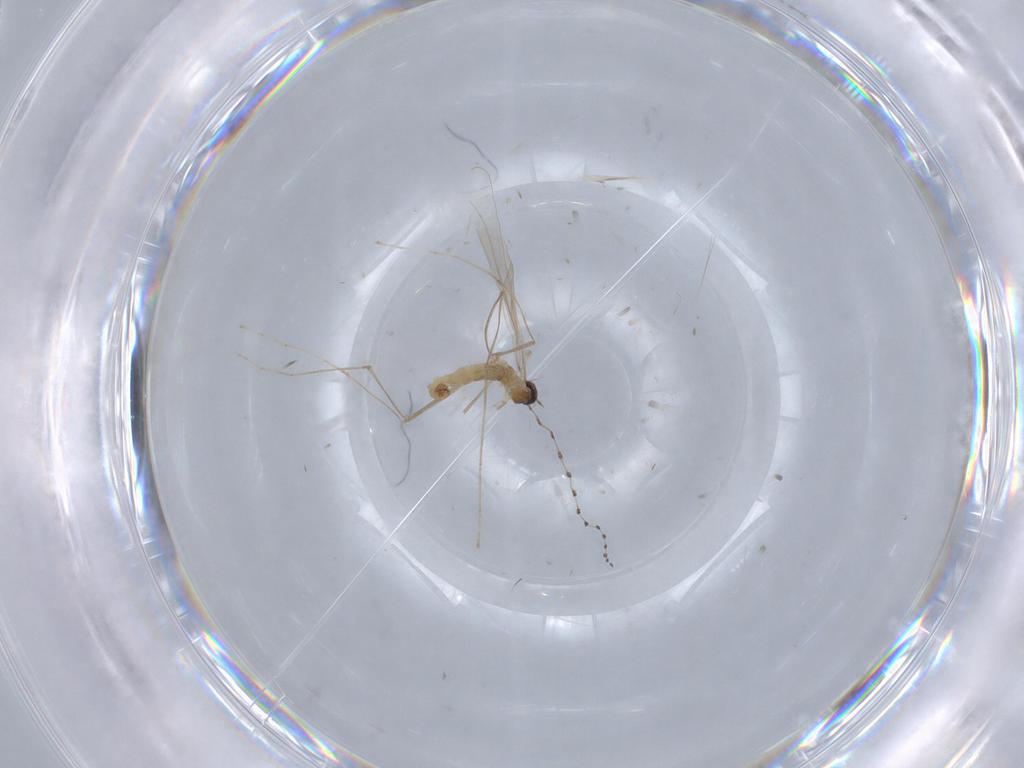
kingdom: Animalia
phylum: Arthropoda
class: Insecta
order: Diptera
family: Cecidomyiidae
